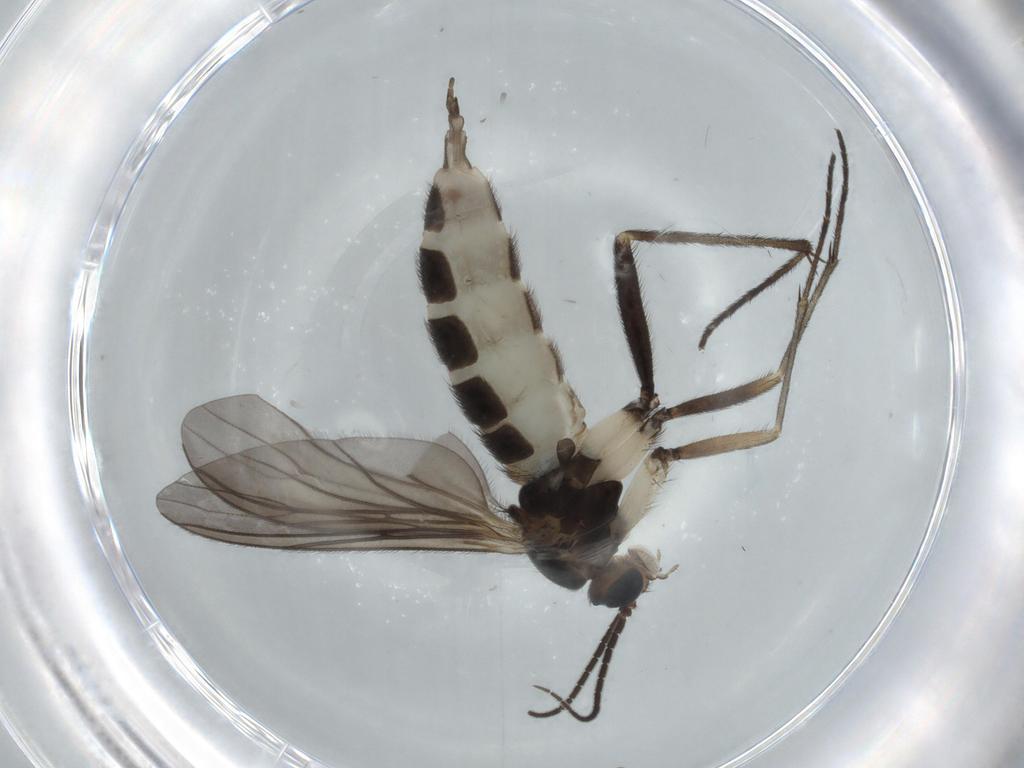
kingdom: Animalia
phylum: Arthropoda
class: Insecta
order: Diptera
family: Sciaridae
